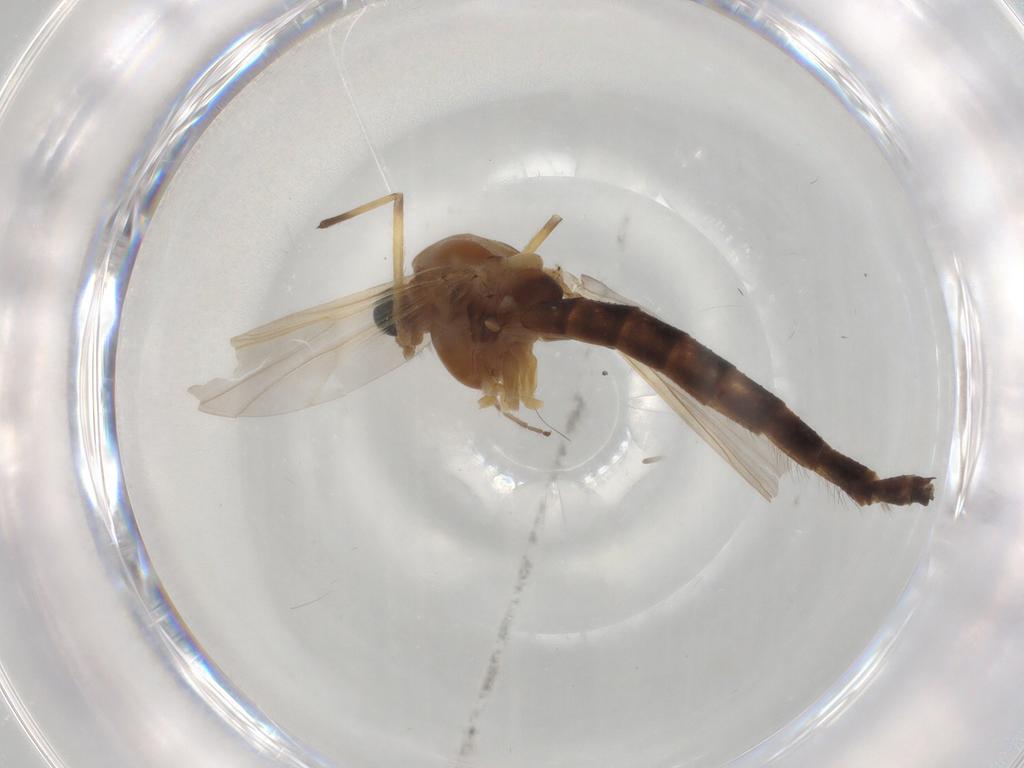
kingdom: Animalia
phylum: Arthropoda
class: Insecta
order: Diptera
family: Chironomidae
